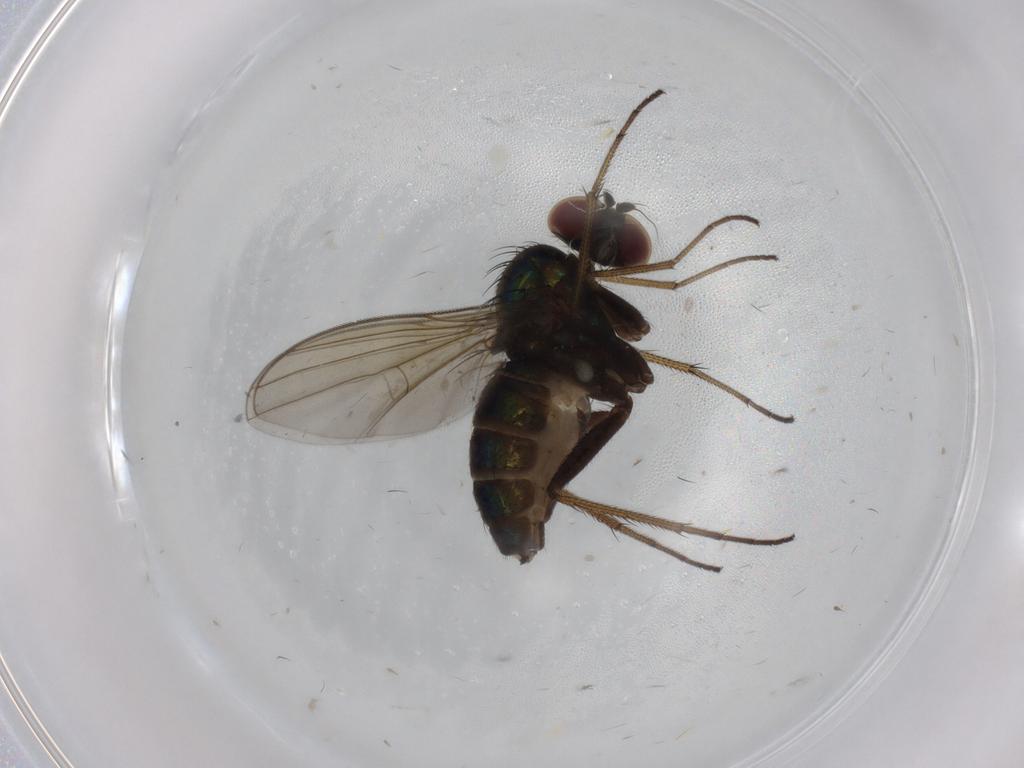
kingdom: Animalia
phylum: Arthropoda
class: Insecta
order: Diptera
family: Dolichopodidae
